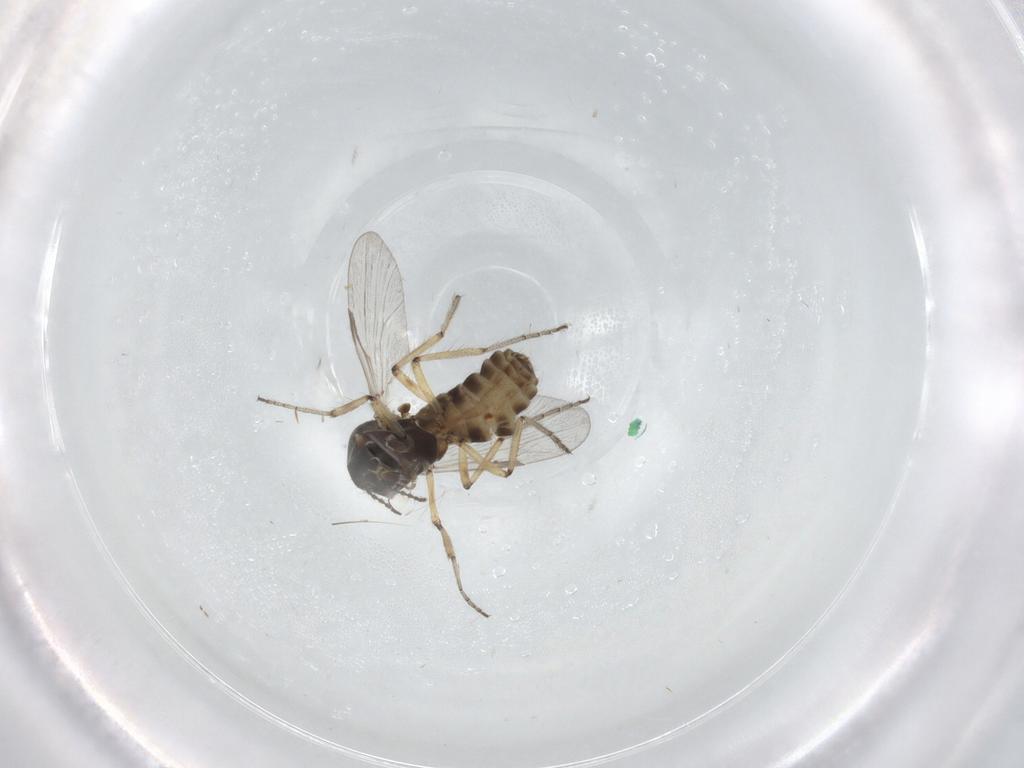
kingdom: Animalia
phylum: Arthropoda
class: Insecta
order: Diptera
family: Ceratopogonidae
